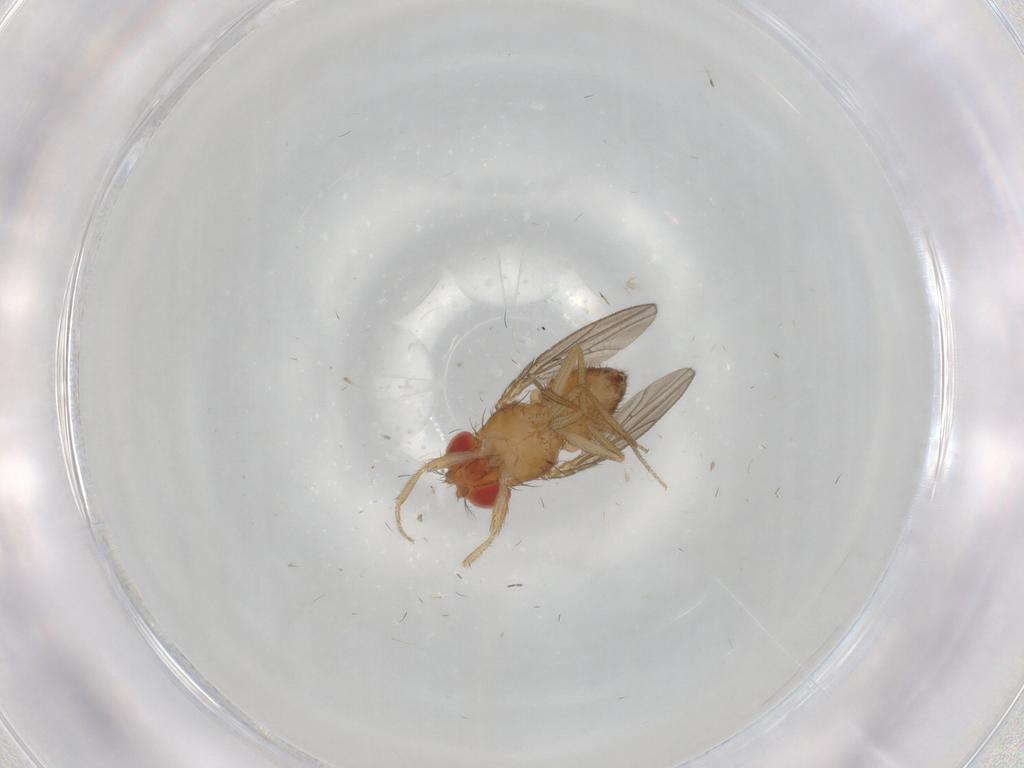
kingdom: Animalia
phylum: Arthropoda
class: Insecta
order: Diptera
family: Drosophilidae
